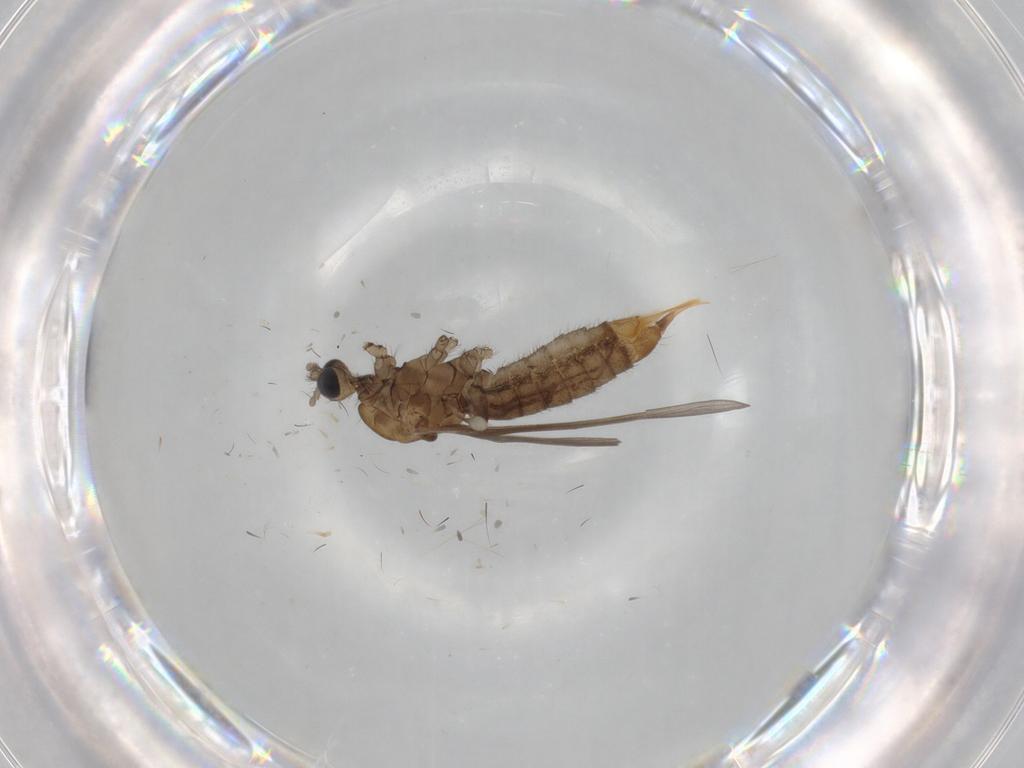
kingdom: Animalia
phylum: Arthropoda
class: Insecta
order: Diptera
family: Limoniidae
